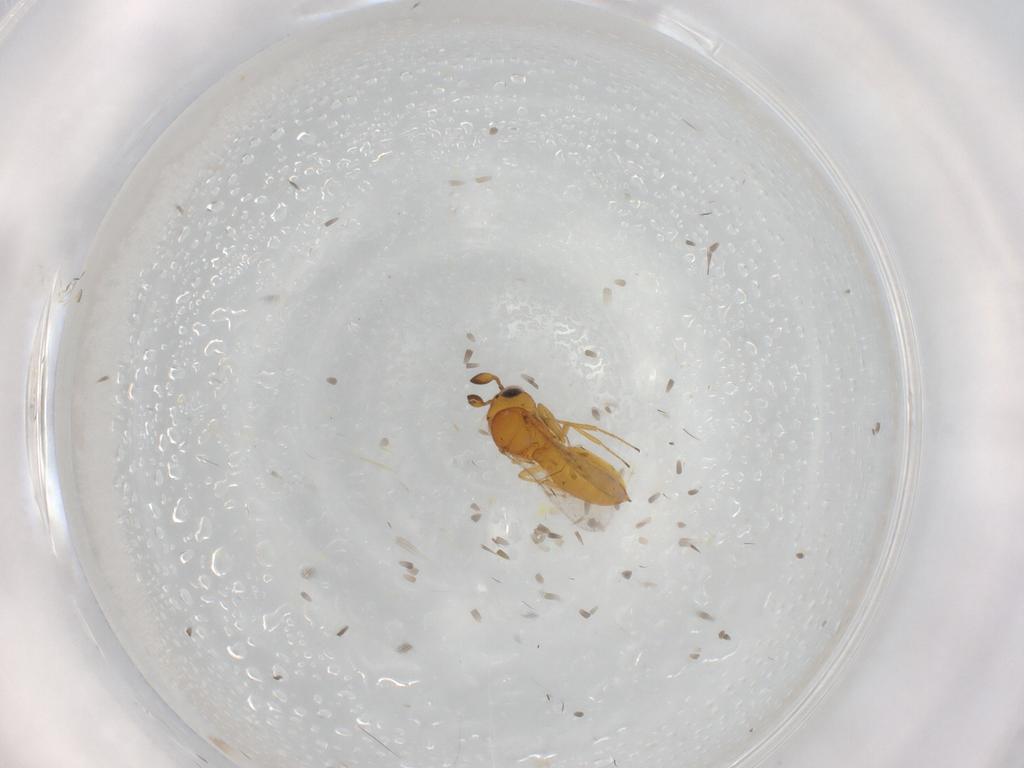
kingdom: Animalia
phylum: Arthropoda
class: Insecta
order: Hymenoptera
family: Scelionidae
